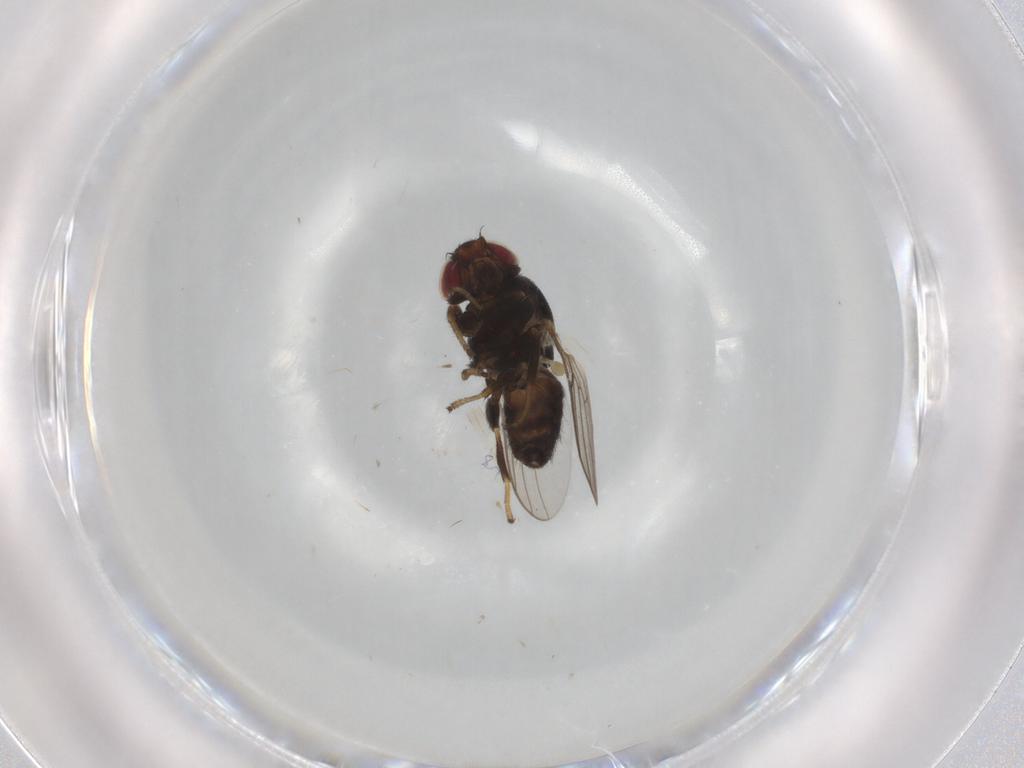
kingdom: Animalia
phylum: Arthropoda
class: Insecta
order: Diptera
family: Chloropidae
